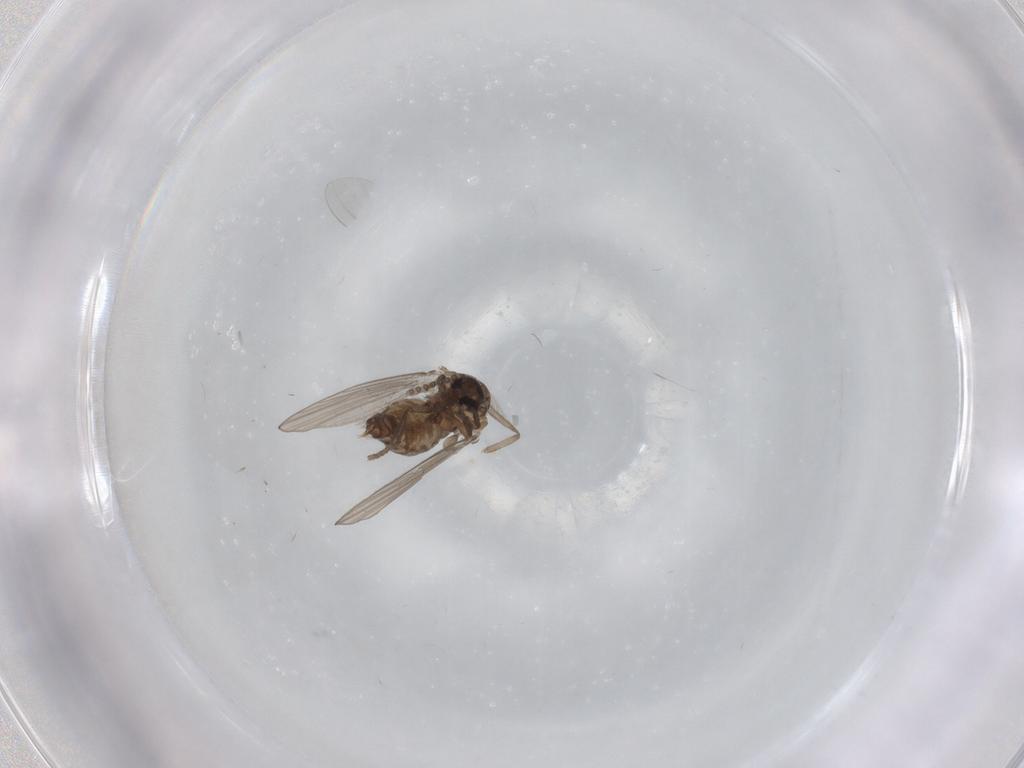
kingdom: Animalia
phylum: Arthropoda
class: Insecta
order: Diptera
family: Psychodidae
